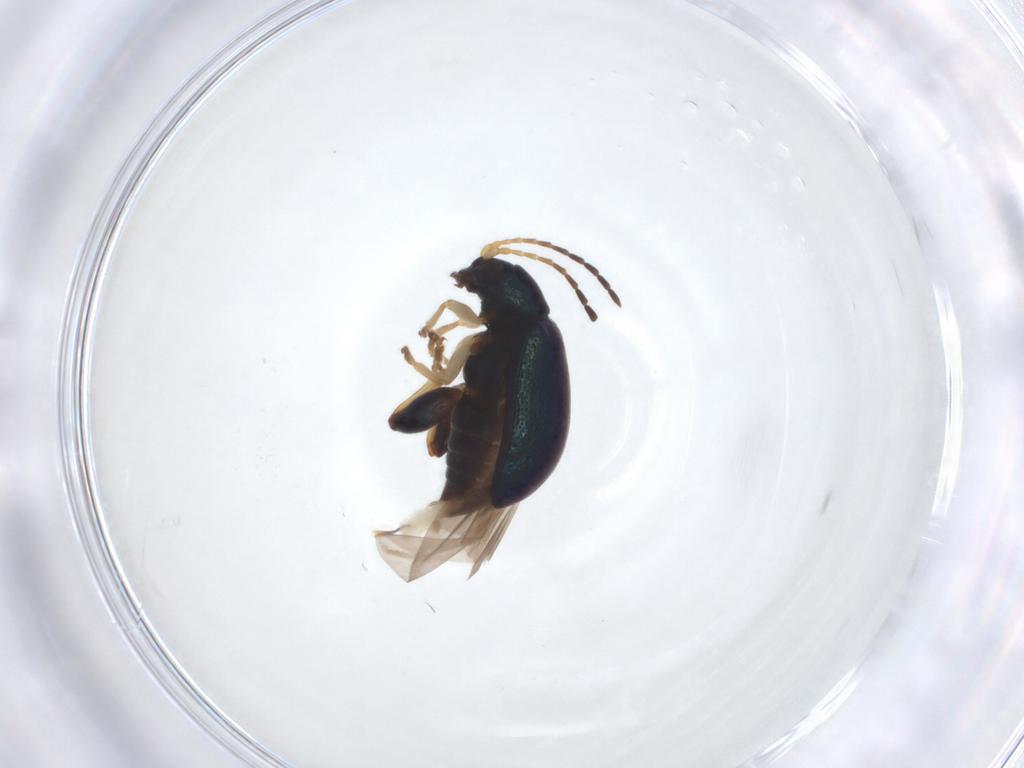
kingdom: Animalia
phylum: Arthropoda
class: Insecta
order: Coleoptera
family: Chrysomelidae
